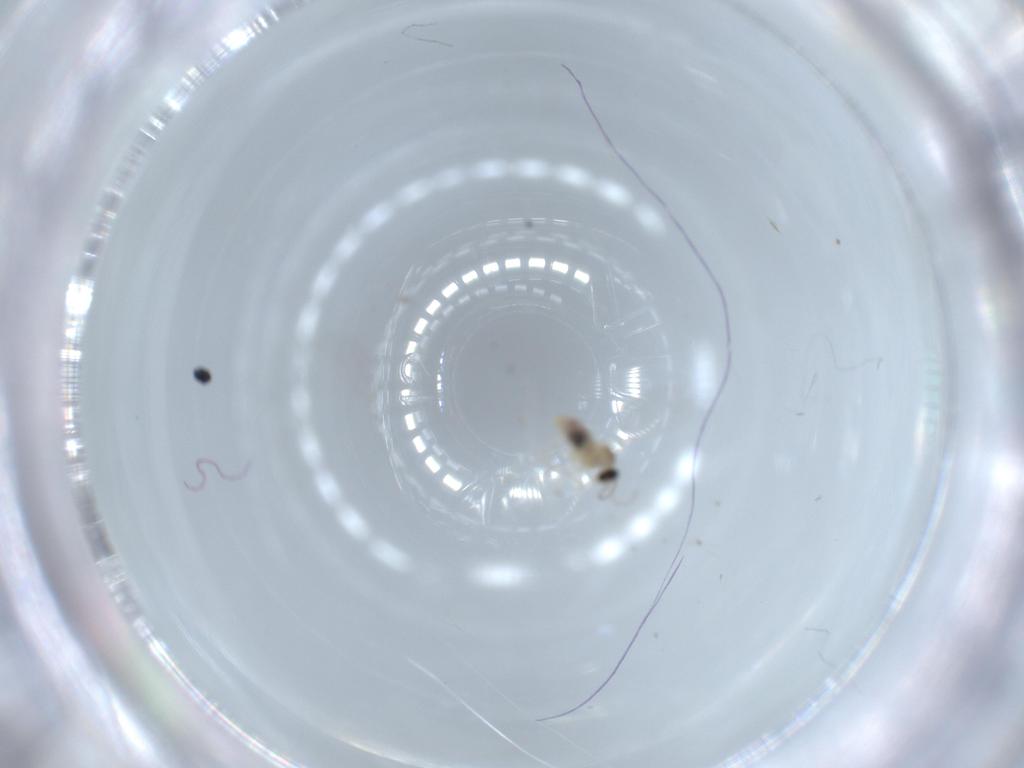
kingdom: Animalia
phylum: Arthropoda
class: Insecta
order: Diptera
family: Cecidomyiidae
